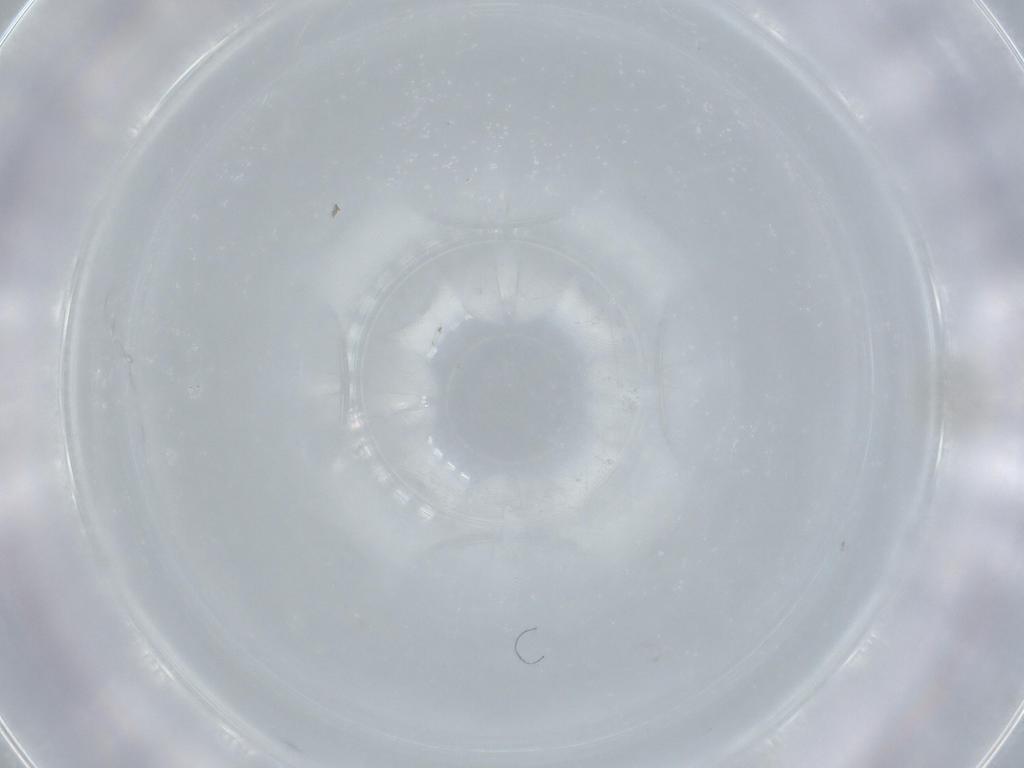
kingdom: Animalia
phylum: Arthropoda
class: Insecta
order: Hymenoptera
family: Mymaridae
